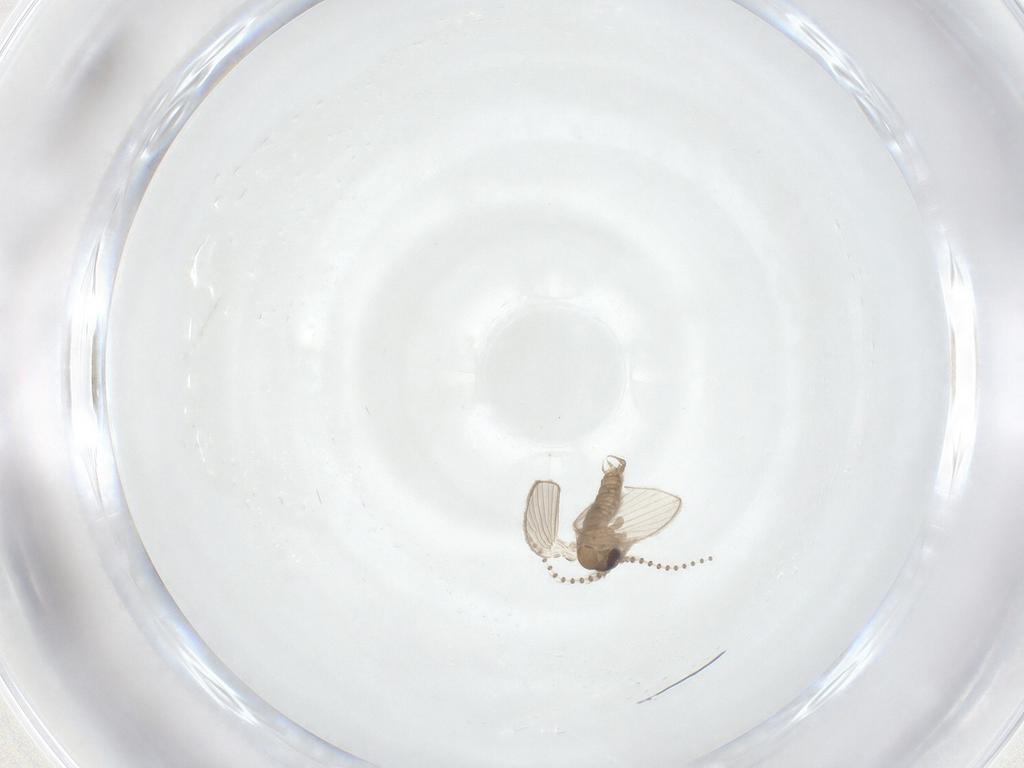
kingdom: Animalia
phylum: Arthropoda
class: Insecta
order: Diptera
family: Psychodidae
